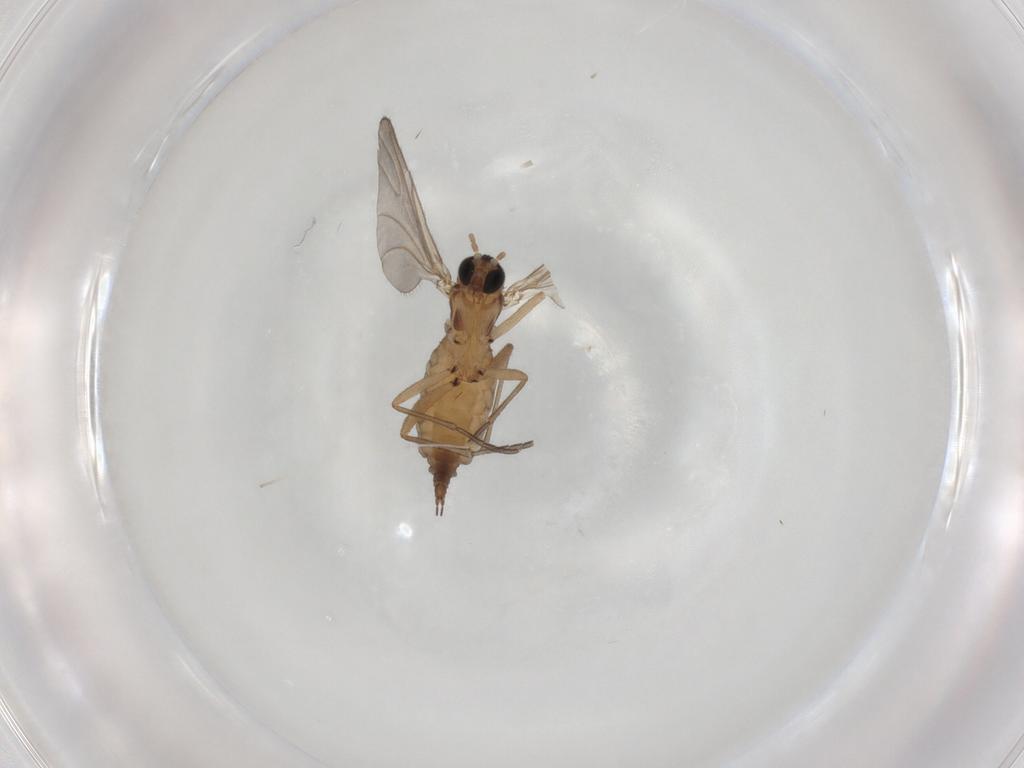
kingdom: Animalia
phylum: Arthropoda
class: Insecta
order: Diptera
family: Sciaridae
